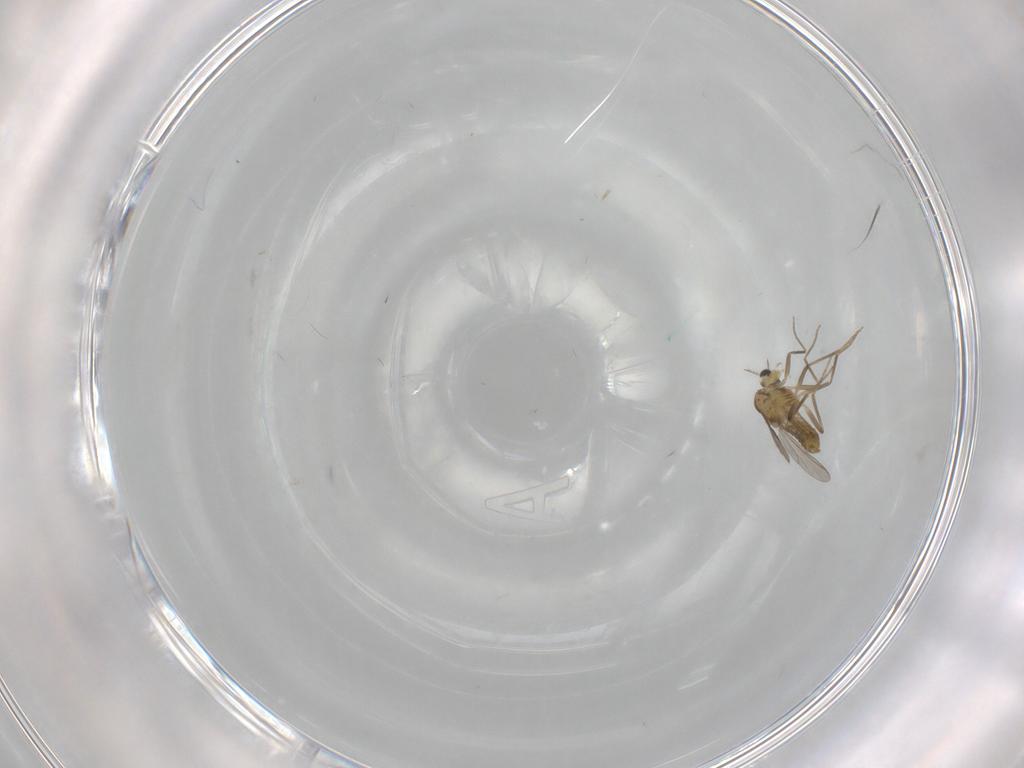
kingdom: Animalia
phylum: Arthropoda
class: Insecta
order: Diptera
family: Chironomidae
